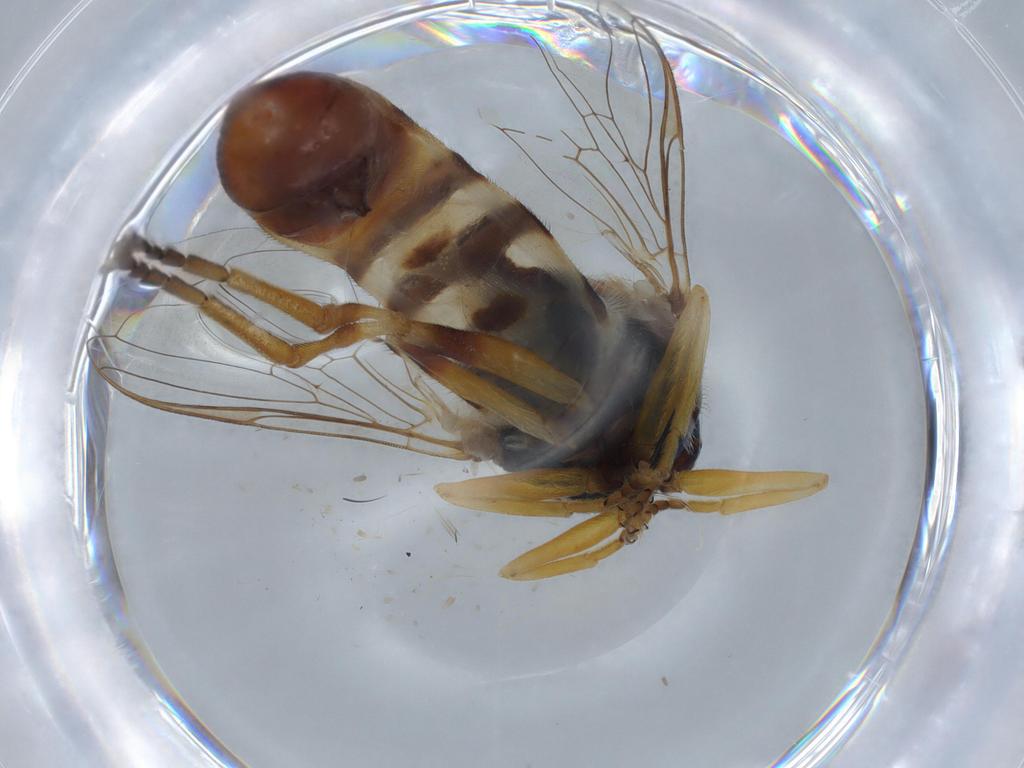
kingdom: Animalia
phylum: Arthropoda
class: Insecta
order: Diptera
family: Syrphidae
